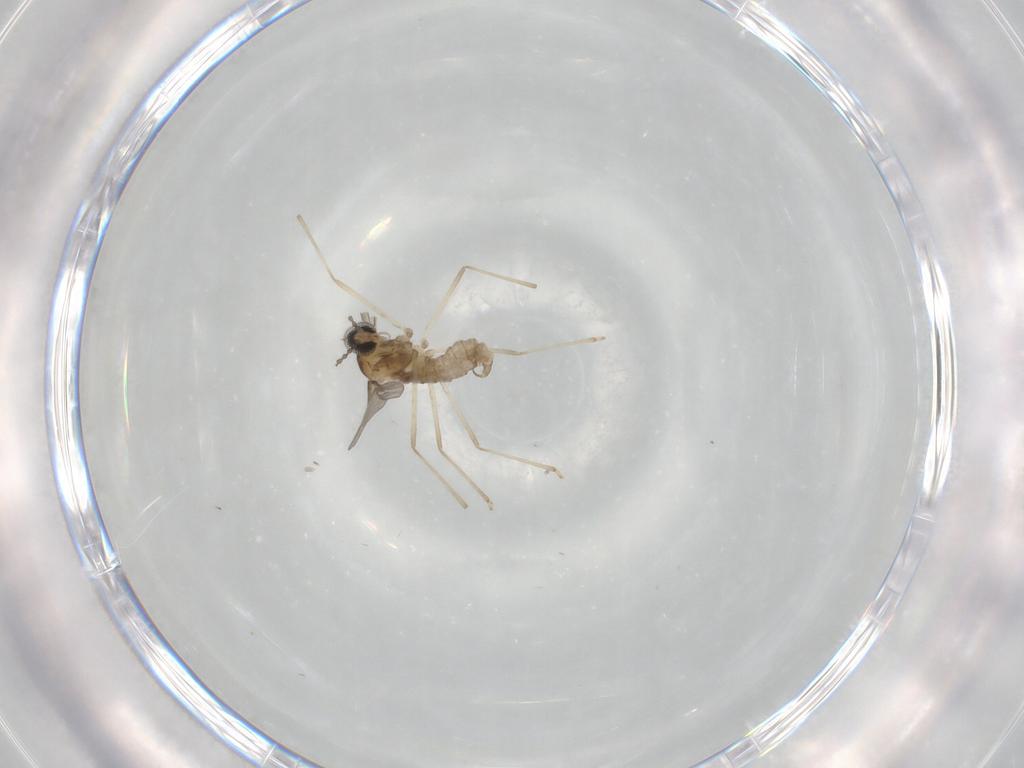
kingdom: Animalia
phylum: Arthropoda
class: Insecta
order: Diptera
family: Cecidomyiidae
